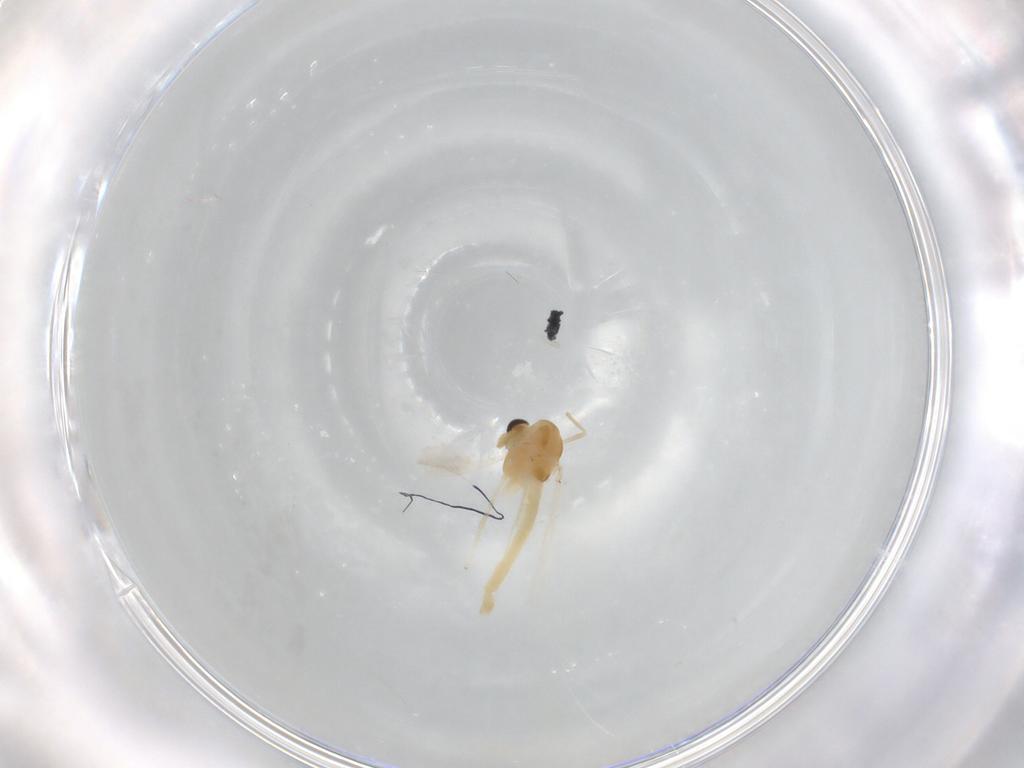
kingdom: Animalia
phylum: Arthropoda
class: Insecta
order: Diptera
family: Chironomidae
